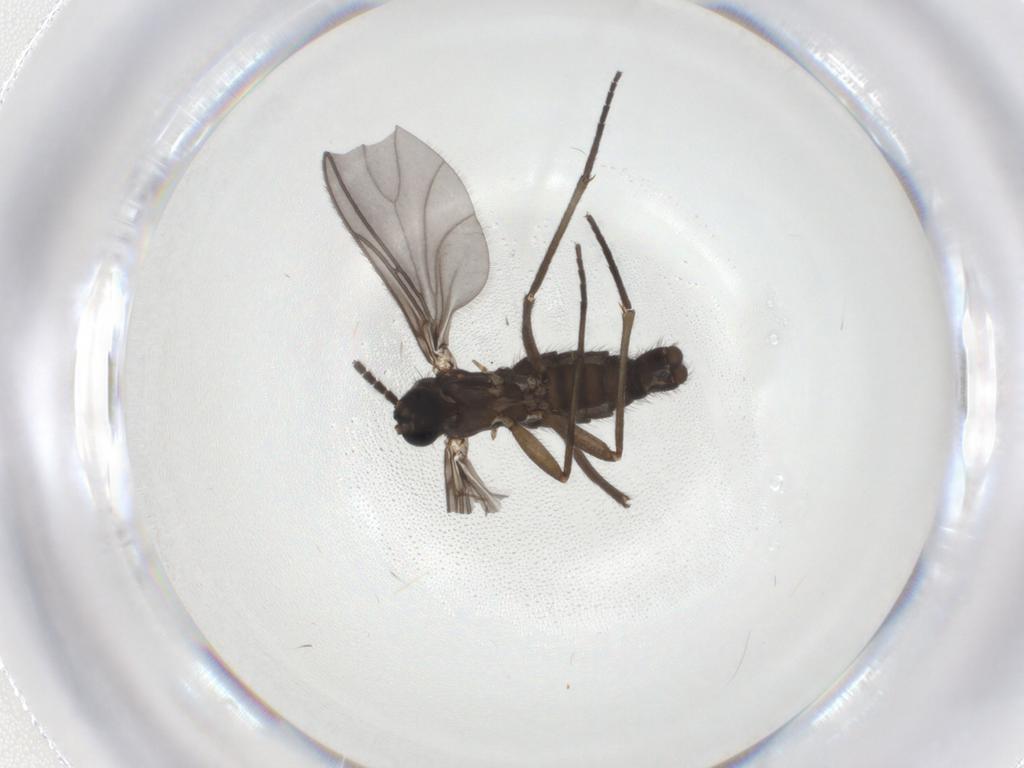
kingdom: Animalia
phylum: Arthropoda
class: Insecta
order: Diptera
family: Sciaridae
